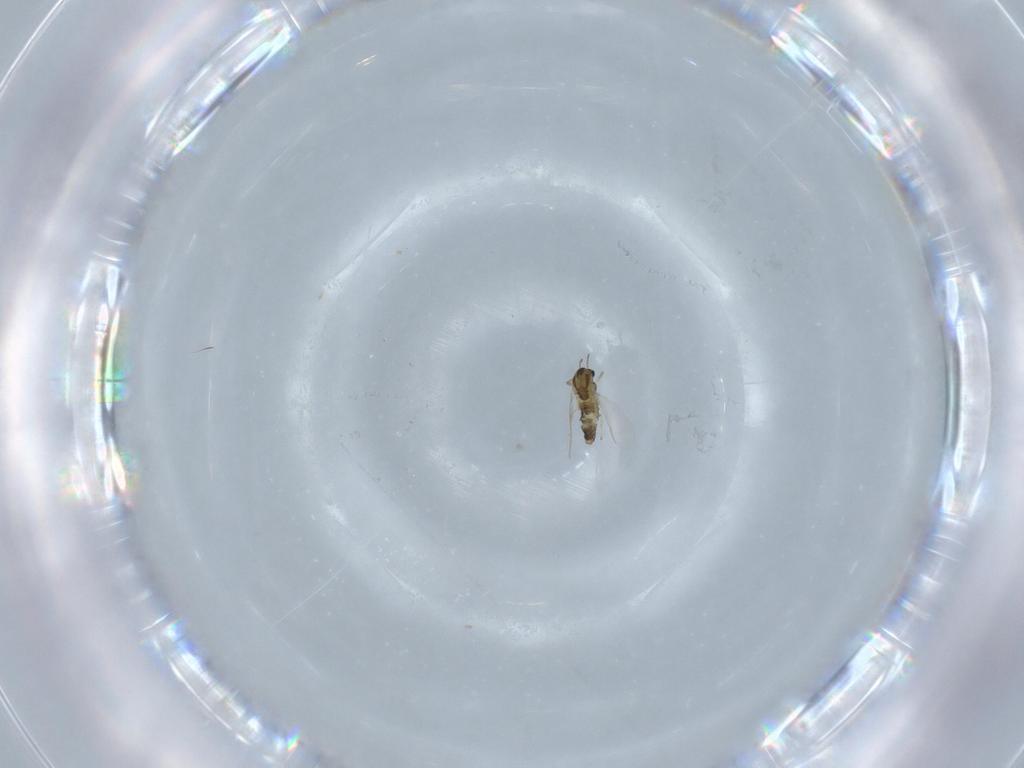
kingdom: Animalia
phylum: Arthropoda
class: Insecta
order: Diptera
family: Chironomidae
